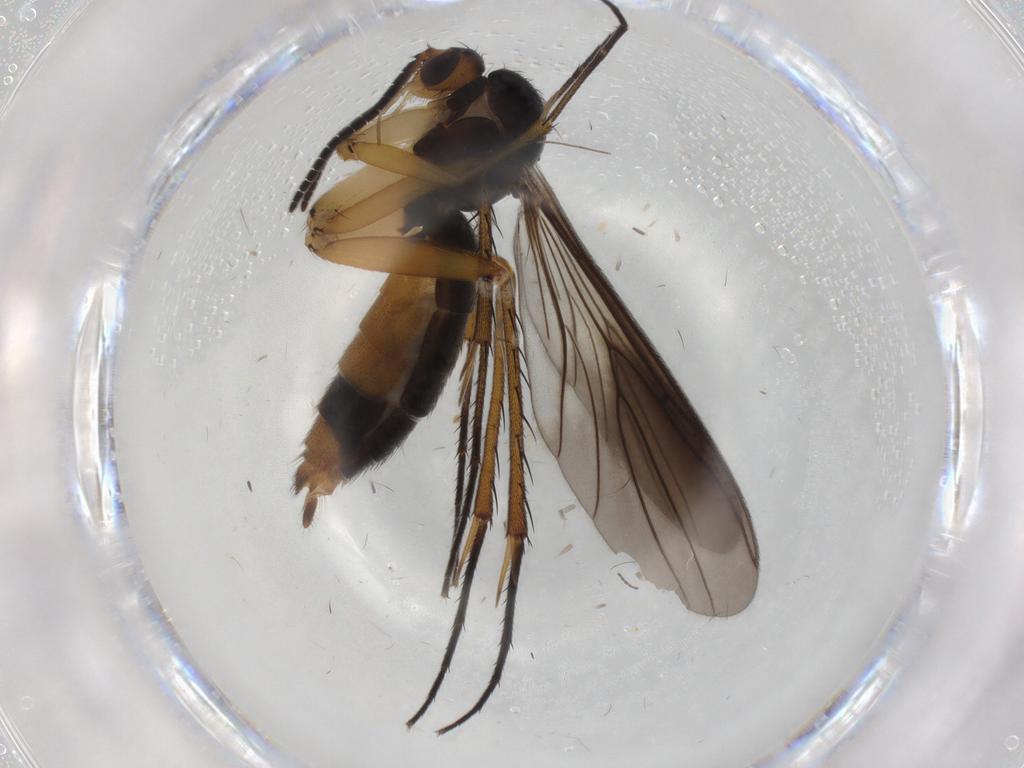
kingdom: Animalia
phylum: Arthropoda
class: Insecta
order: Diptera
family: Mycetophilidae
